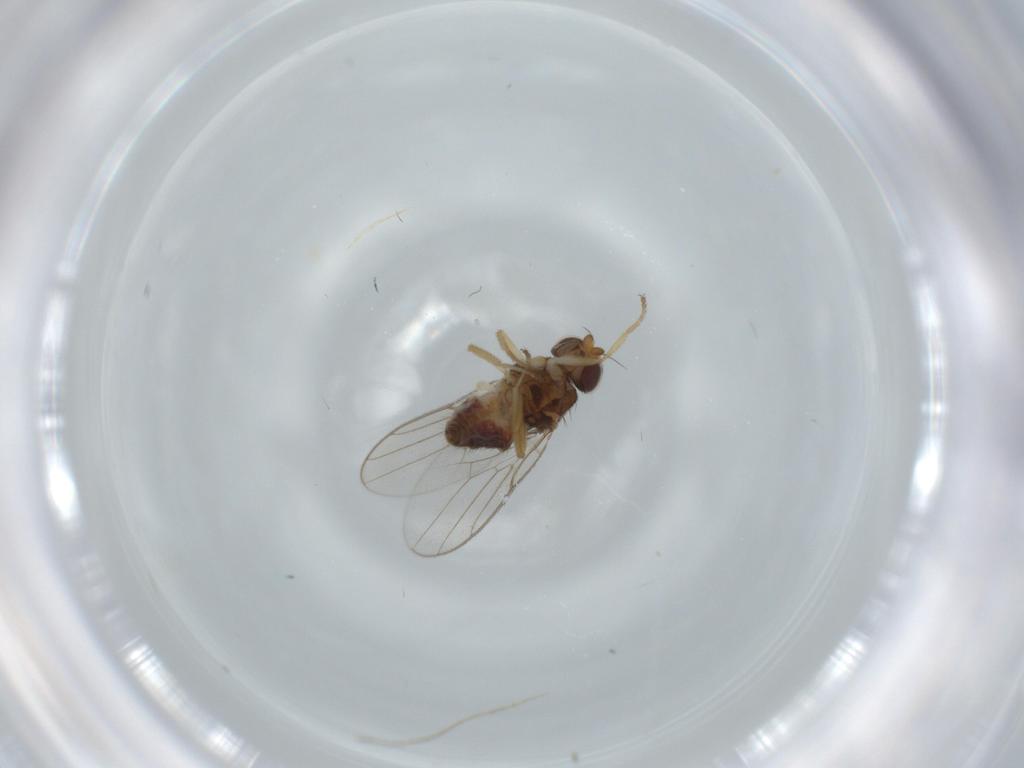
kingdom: Animalia
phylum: Arthropoda
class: Insecta
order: Diptera
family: Chloropidae
